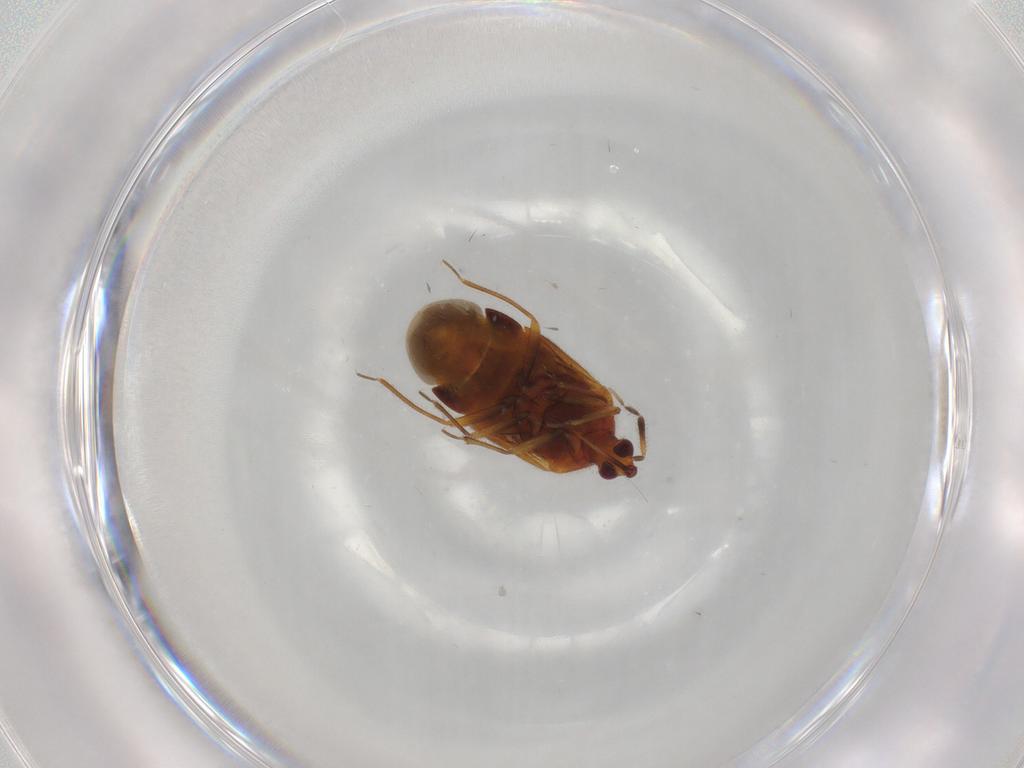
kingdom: Animalia
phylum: Arthropoda
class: Insecta
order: Hemiptera
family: Anthocoridae
